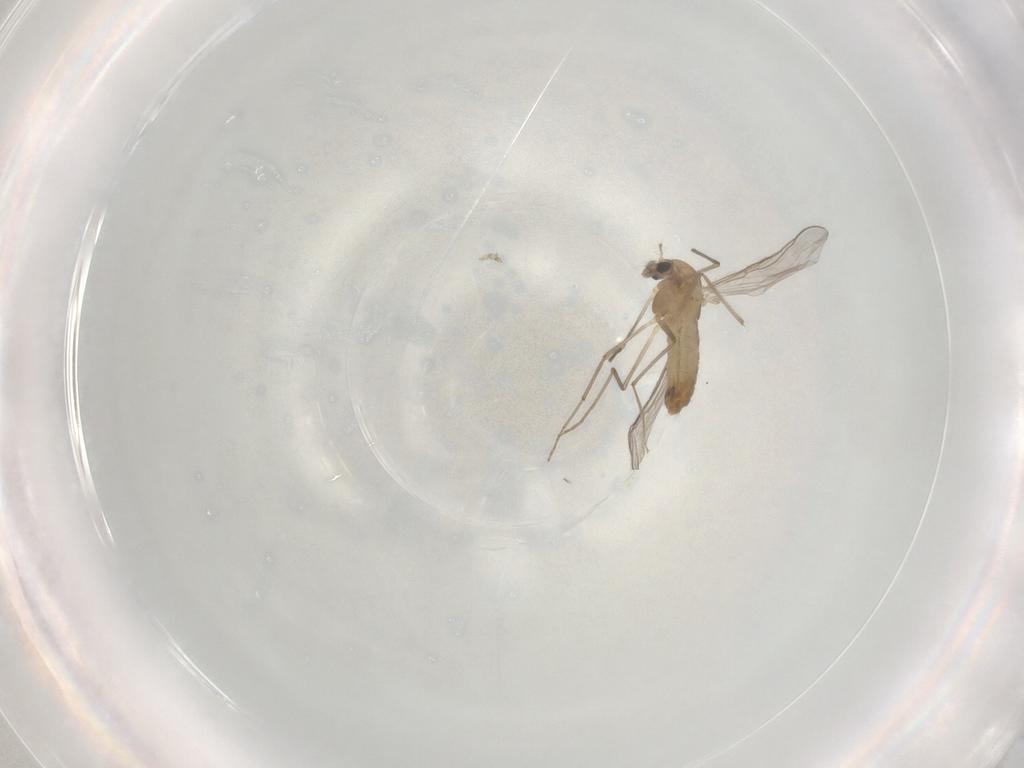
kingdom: Animalia
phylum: Arthropoda
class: Insecta
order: Diptera
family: Chironomidae
